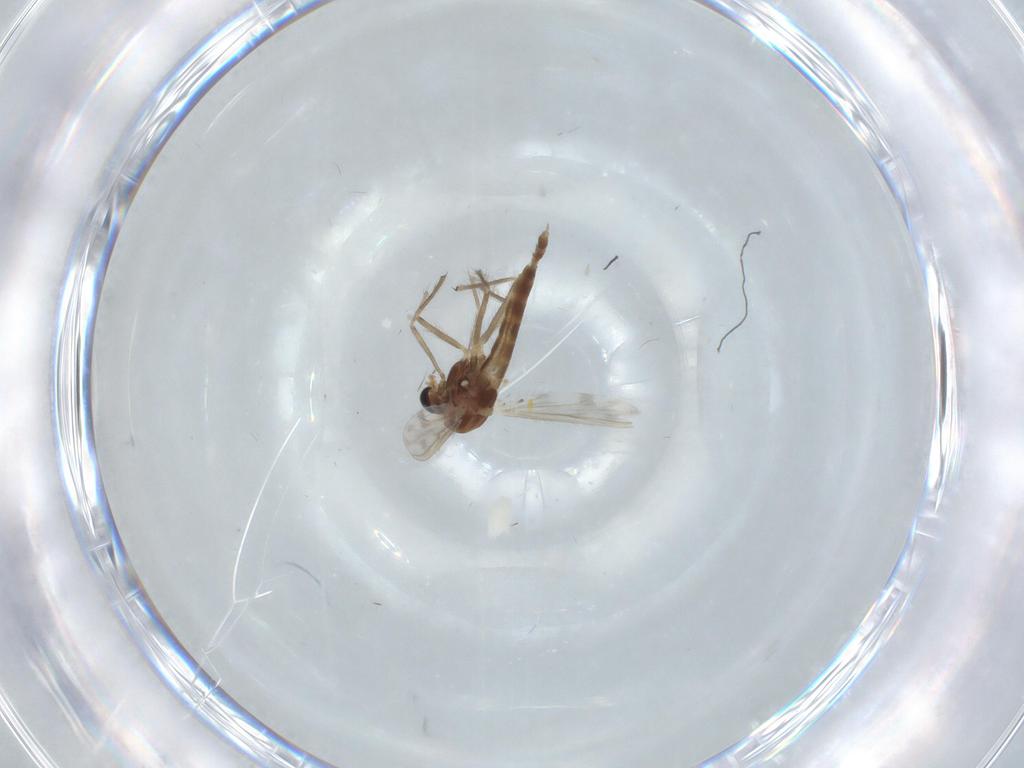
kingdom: Animalia
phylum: Arthropoda
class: Insecta
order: Diptera
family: Chironomidae
